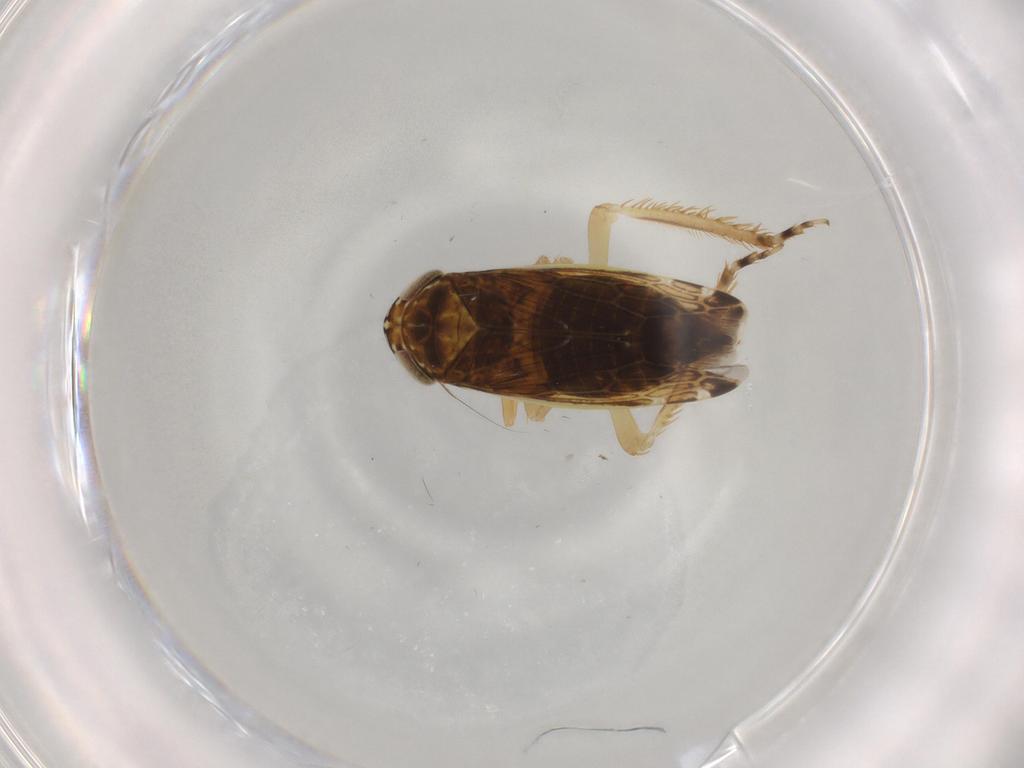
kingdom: Animalia
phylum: Arthropoda
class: Insecta
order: Hemiptera
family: Cicadellidae
